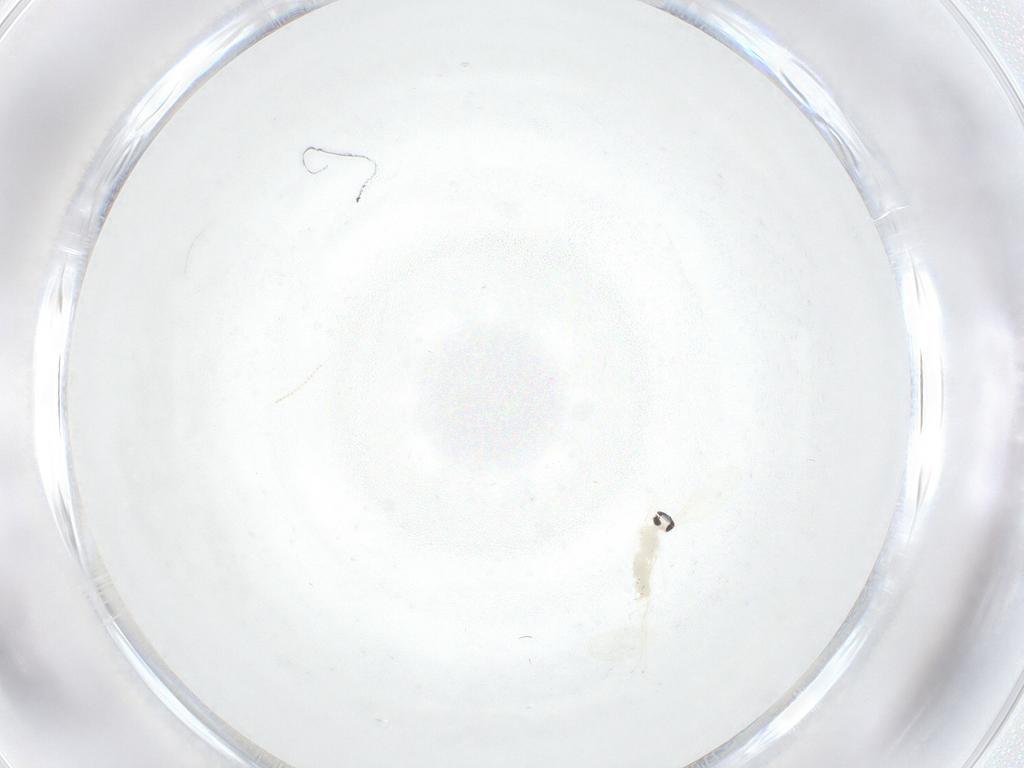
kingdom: Animalia
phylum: Arthropoda
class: Insecta
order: Diptera
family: Cecidomyiidae
